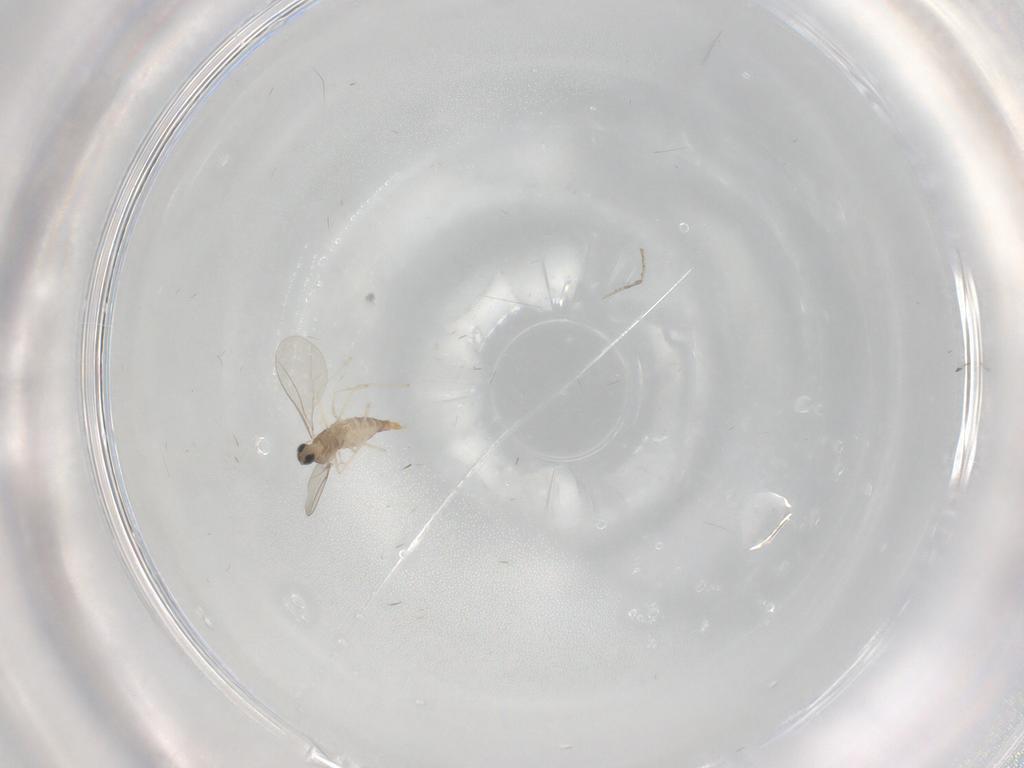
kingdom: Animalia
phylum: Arthropoda
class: Insecta
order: Diptera
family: Cecidomyiidae
